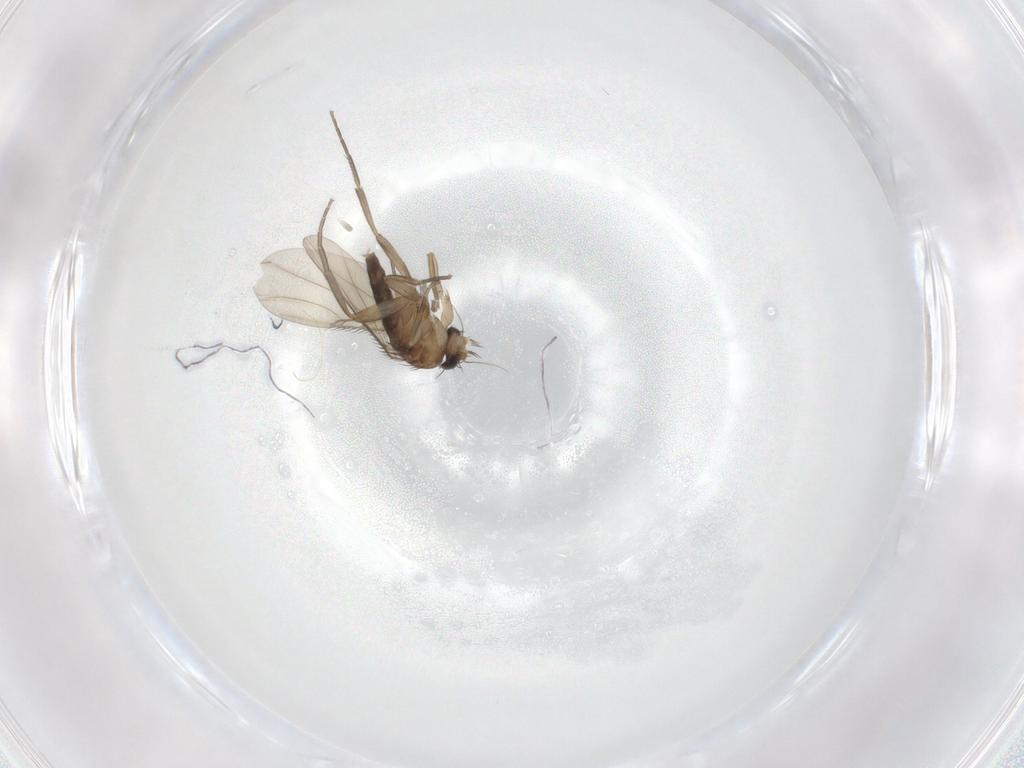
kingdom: Animalia
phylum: Arthropoda
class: Insecta
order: Diptera
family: Phoridae
